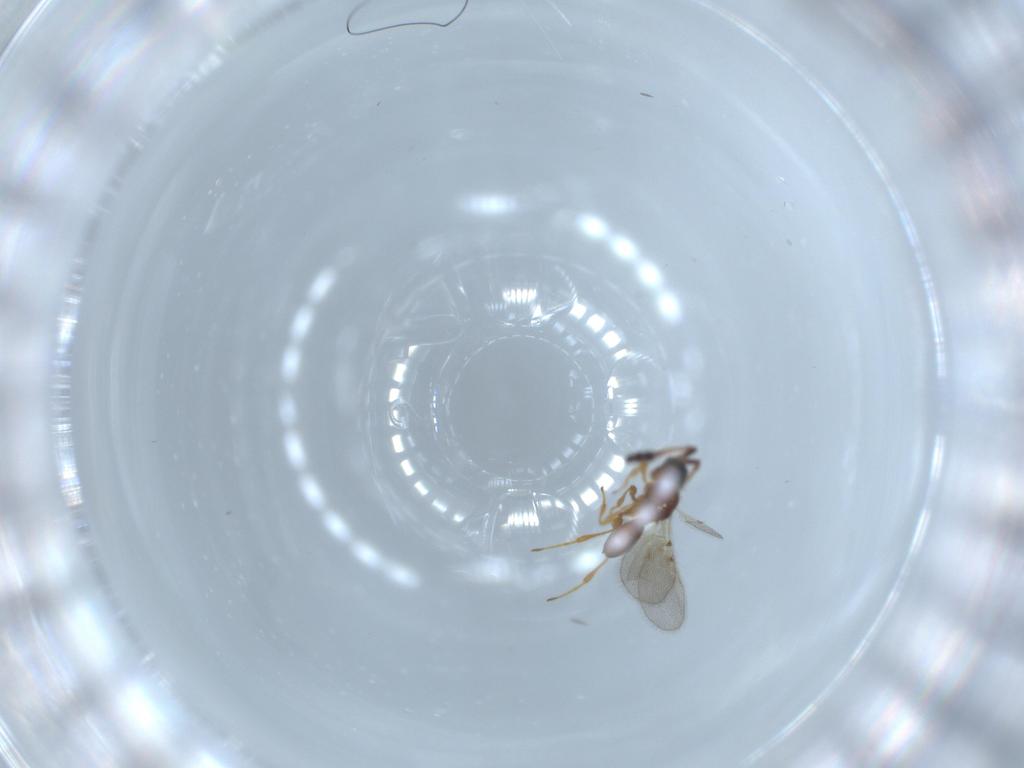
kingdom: Animalia
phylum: Arthropoda
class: Insecta
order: Hymenoptera
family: Diapriidae
